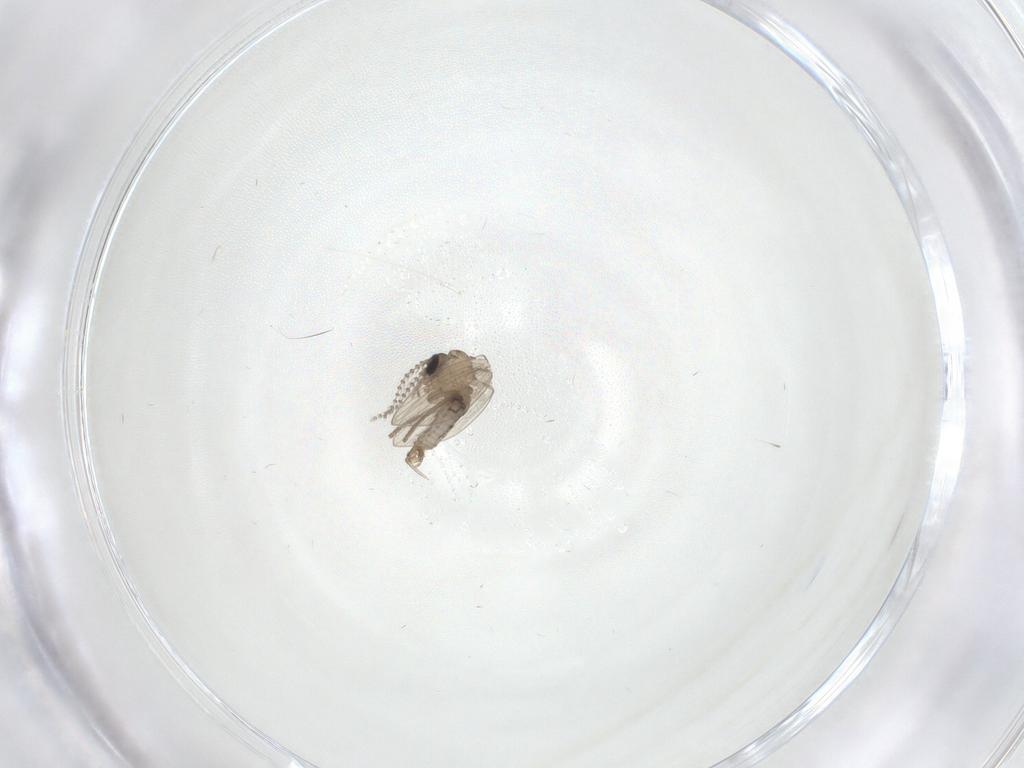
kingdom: Animalia
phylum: Arthropoda
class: Insecta
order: Diptera
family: Psychodidae
